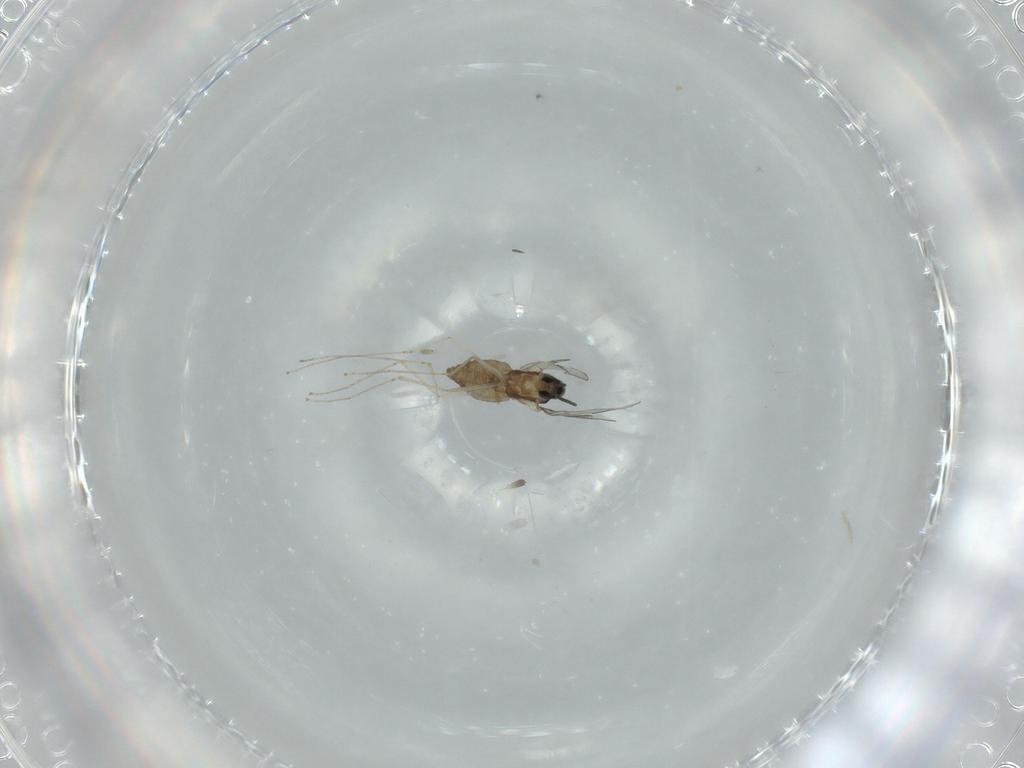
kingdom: Animalia
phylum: Arthropoda
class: Insecta
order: Diptera
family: Cecidomyiidae
